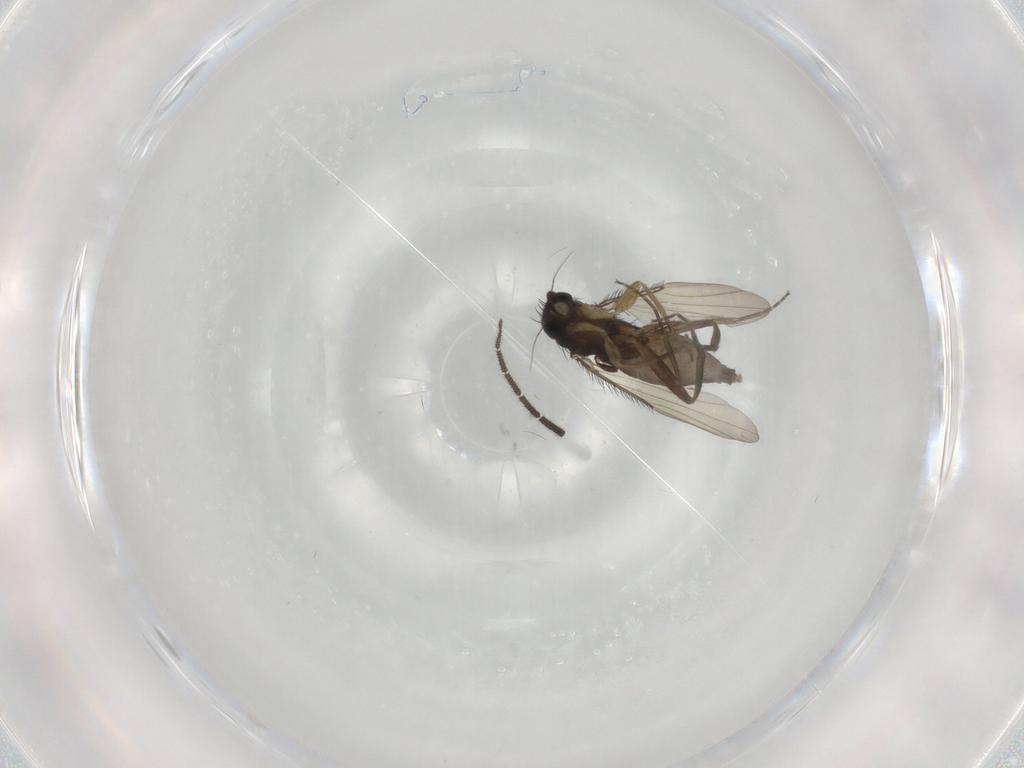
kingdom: Animalia
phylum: Arthropoda
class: Insecta
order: Diptera
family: Phoridae
